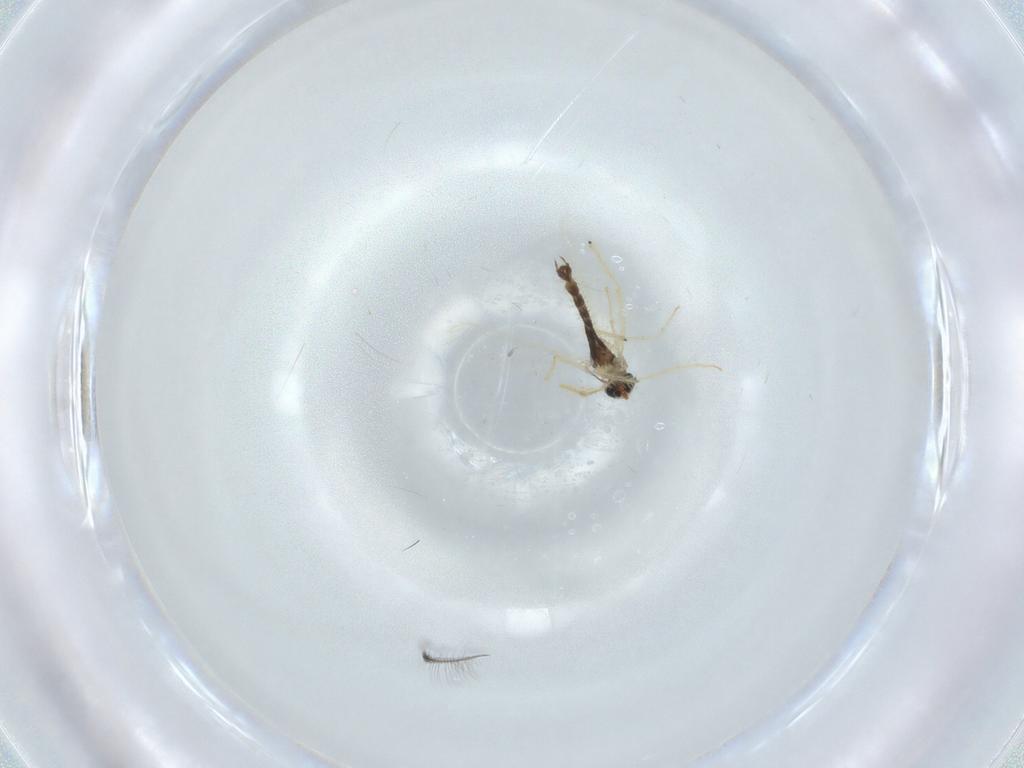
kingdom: Animalia
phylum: Arthropoda
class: Insecta
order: Diptera
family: Chironomidae
